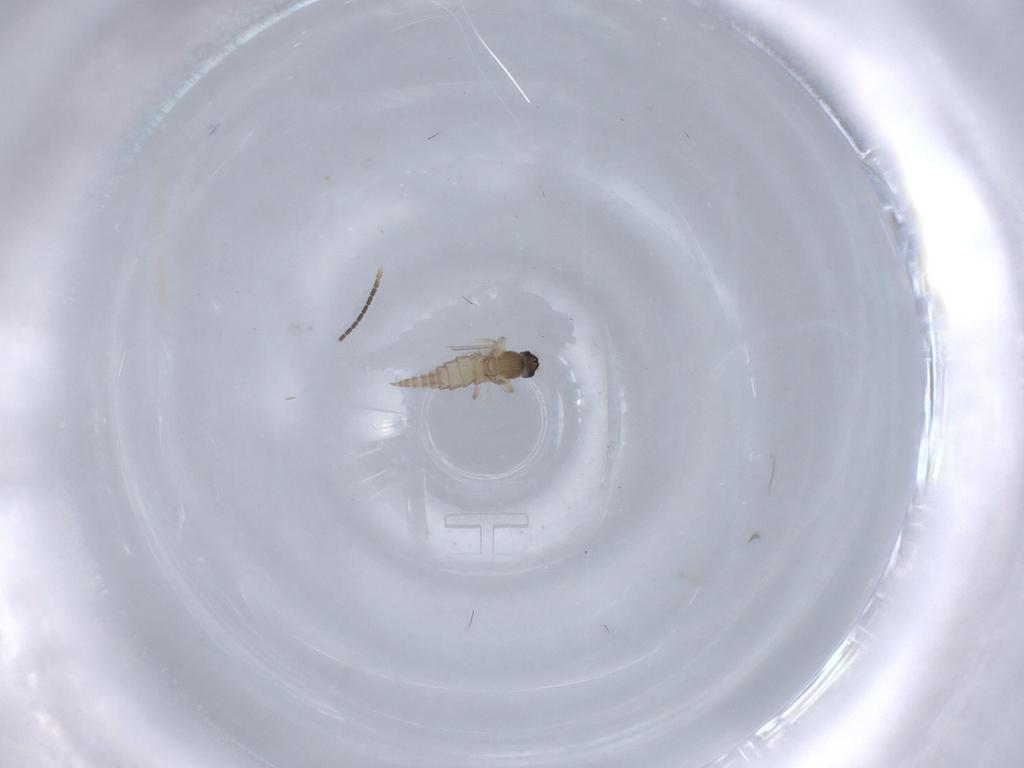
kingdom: Animalia
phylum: Arthropoda
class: Insecta
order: Diptera
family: Cecidomyiidae
